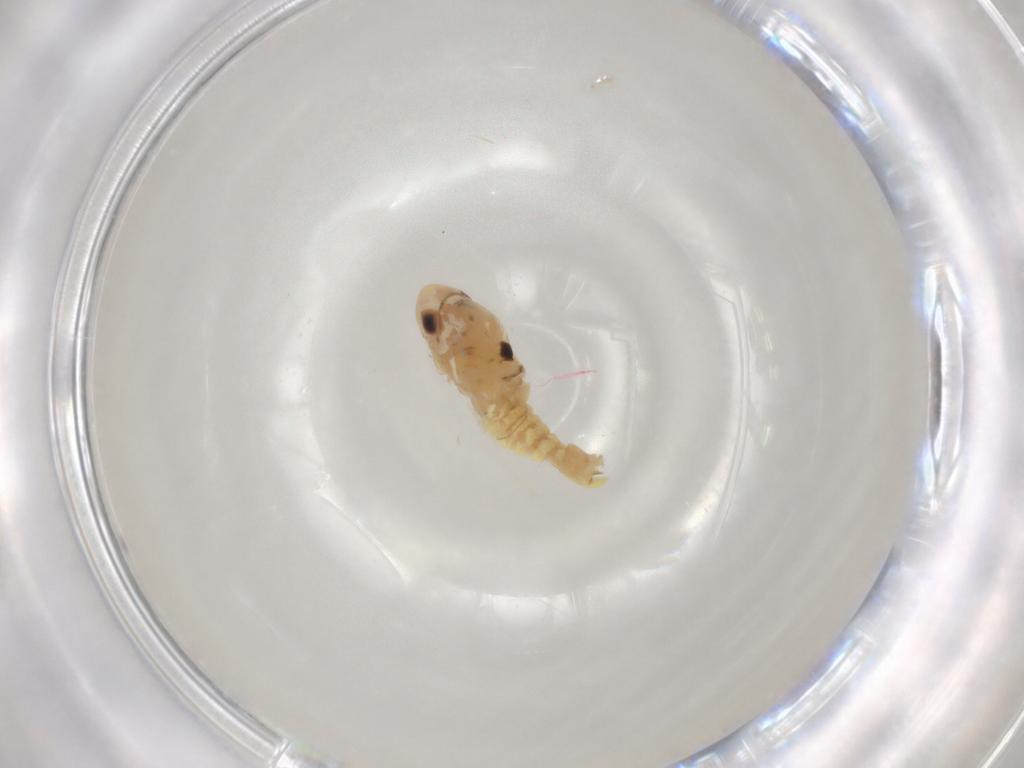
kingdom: Animalia
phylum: Arthropoda
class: Insecta
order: Hemiptera
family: Cicadellidae
